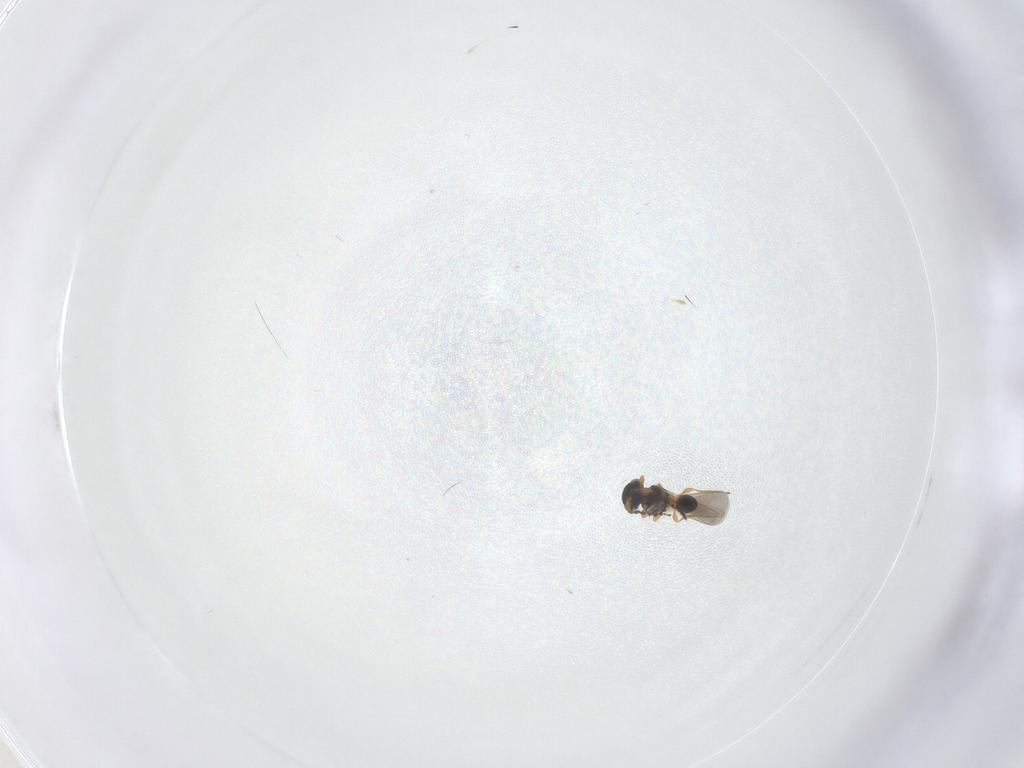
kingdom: Animalia
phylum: Arthropoda
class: Insecta
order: Hymenoptera
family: Platygastridae
